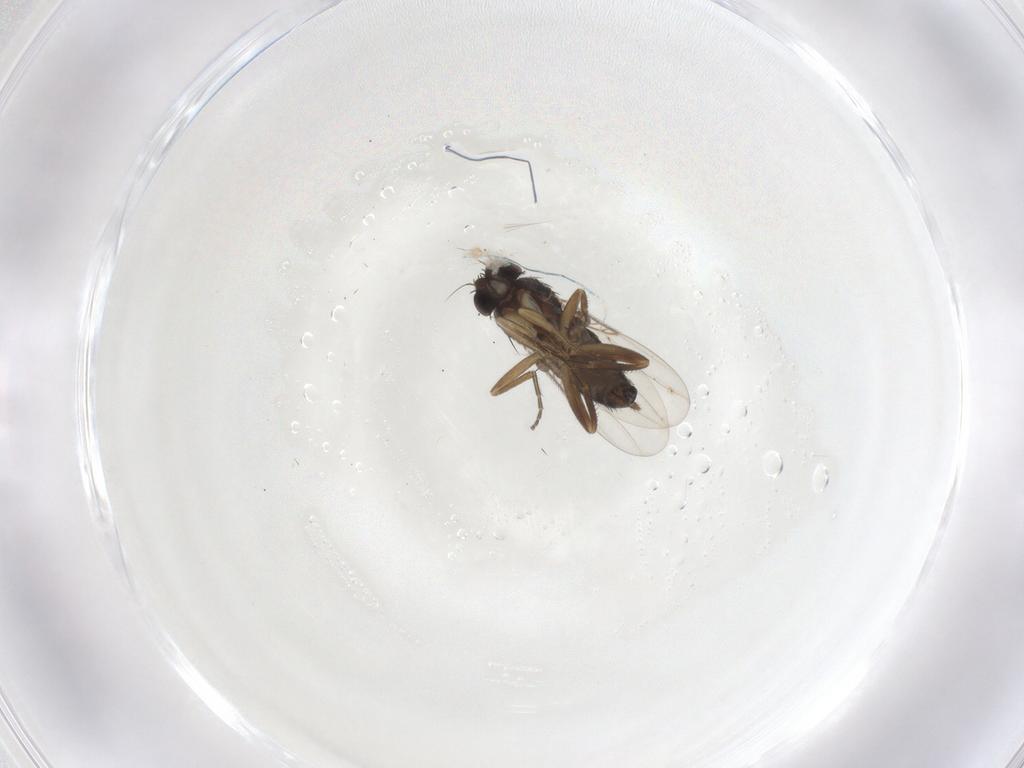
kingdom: Animalia
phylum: Arthropoda
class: Insecta
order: Diptera
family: Phoridae
